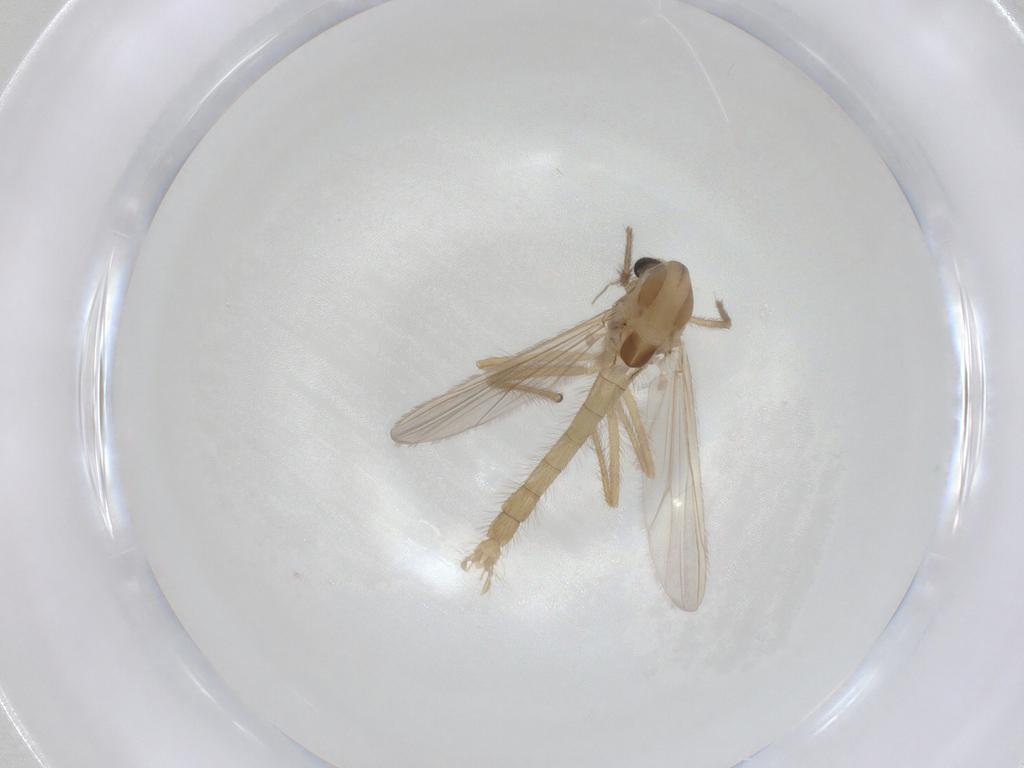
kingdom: Animalia
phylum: Arthropoda
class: Insecta
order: Diptera
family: Chironomidae
